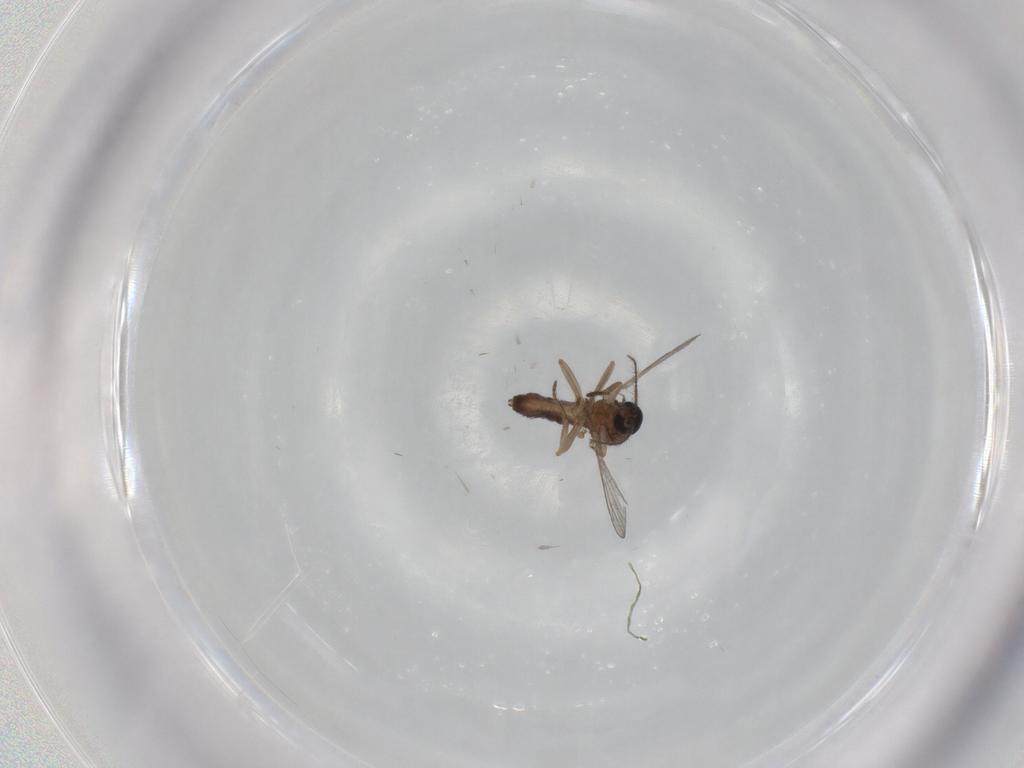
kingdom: Animalia
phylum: Arthropoda
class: Insecta
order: Diptera
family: Ceratopogonidae
